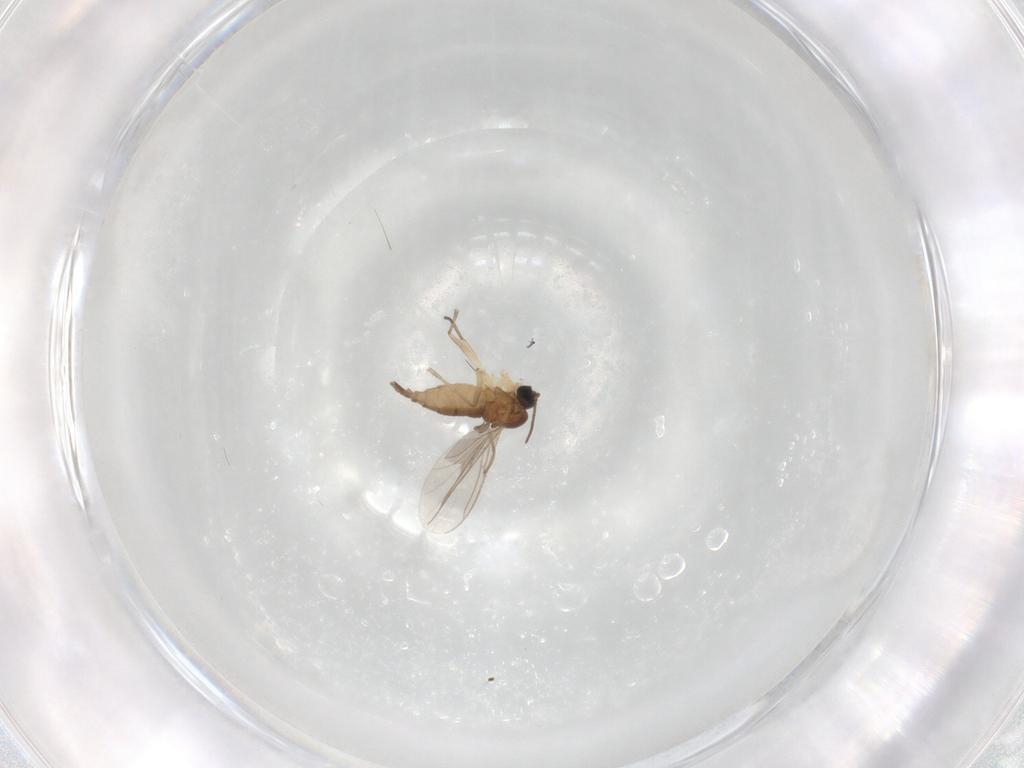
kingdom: Animalia
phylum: Arthropoda
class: Insecta
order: Diptera
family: Sciaridae
